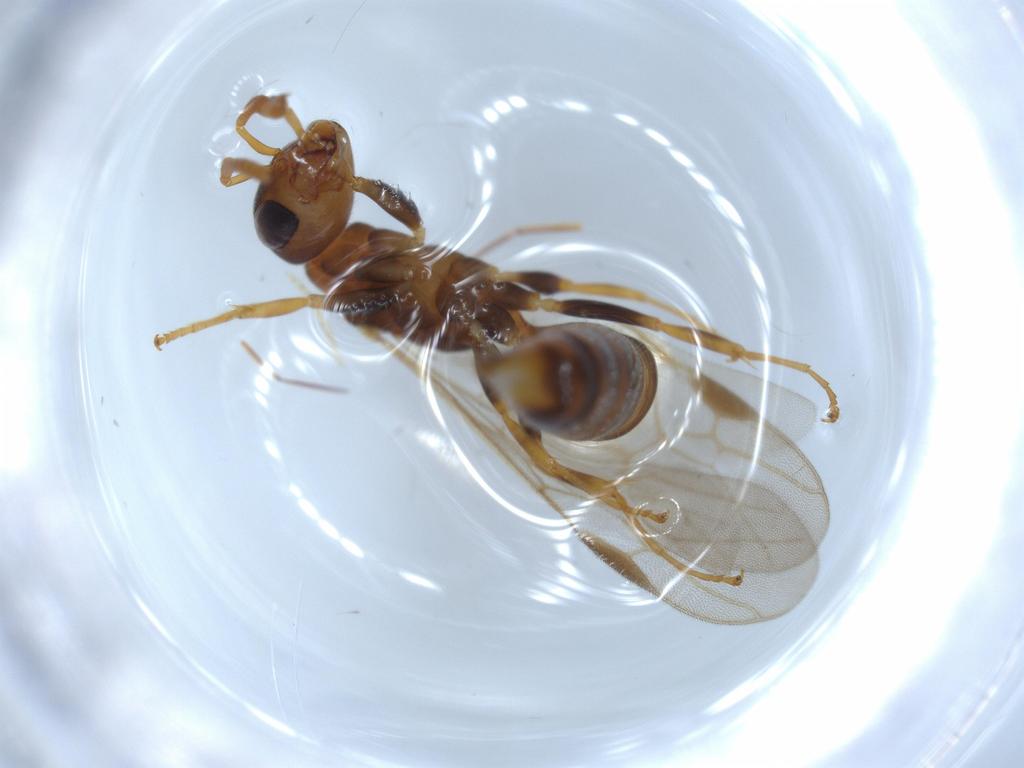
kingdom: Animalia
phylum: Arthropoda
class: Insecta
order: Hymenoptera
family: Formicidae
